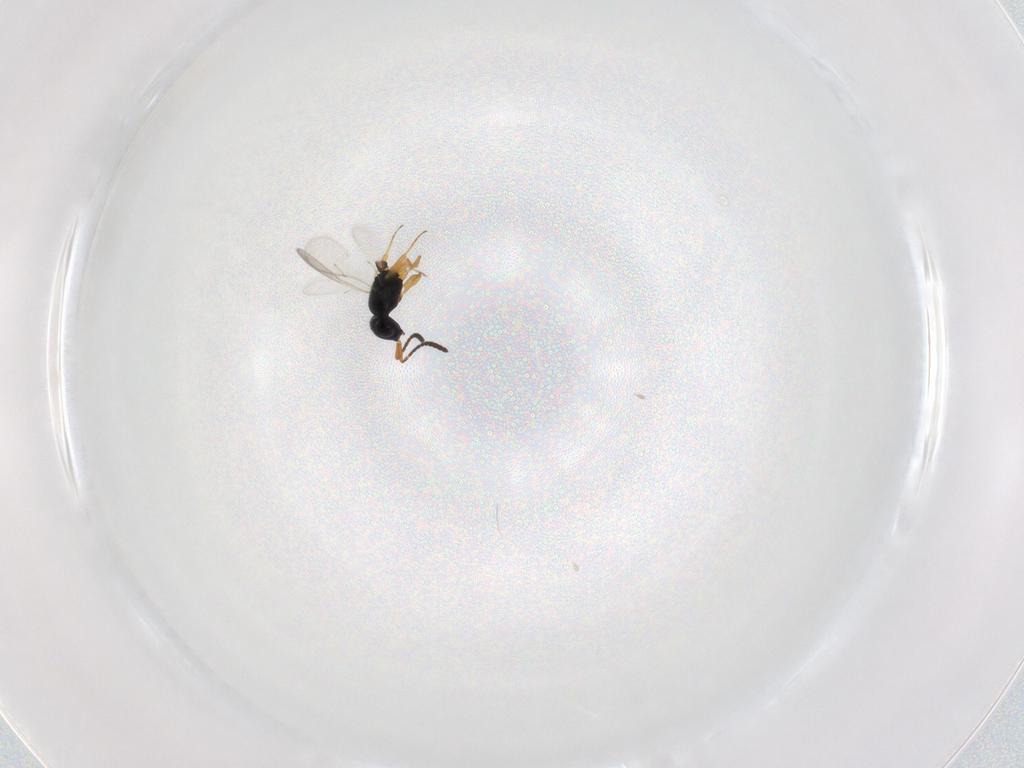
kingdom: Animalia
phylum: Arthropoda
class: Insecta
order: Hymenoptera
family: Scelionidae
